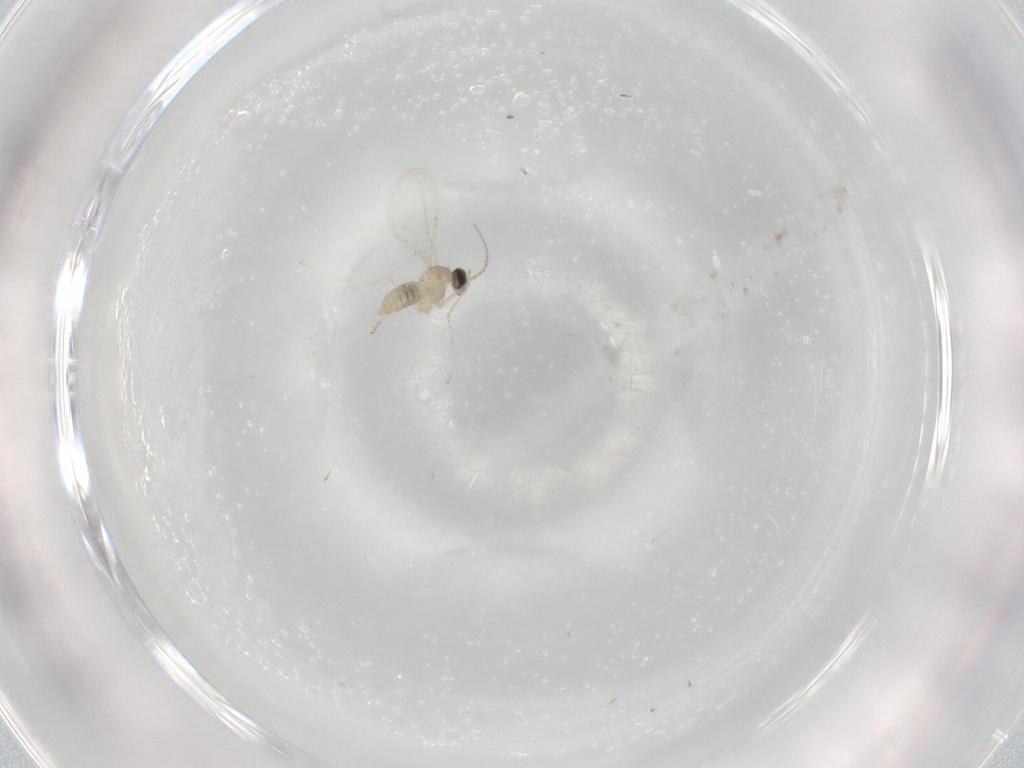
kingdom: Animalia
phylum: Arthropoda
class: Insecta
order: Diptera
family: Cecidomyiidae
